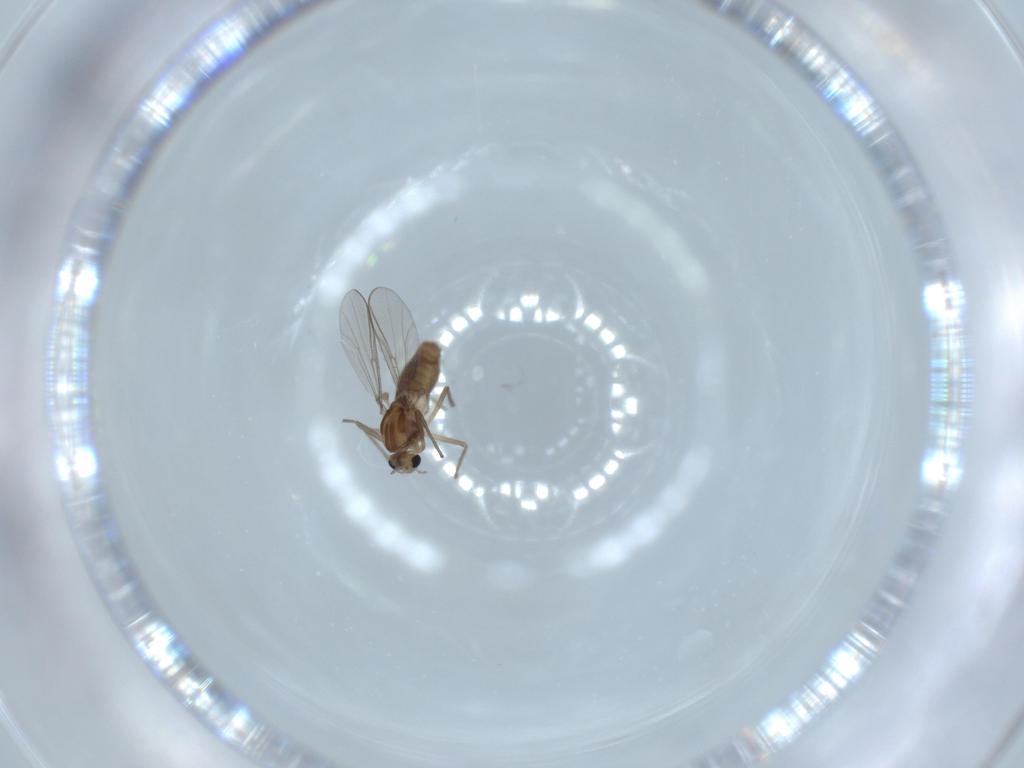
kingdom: Animalia
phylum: Arthropoda
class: Insecta
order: Diptera
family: Chironomidae
